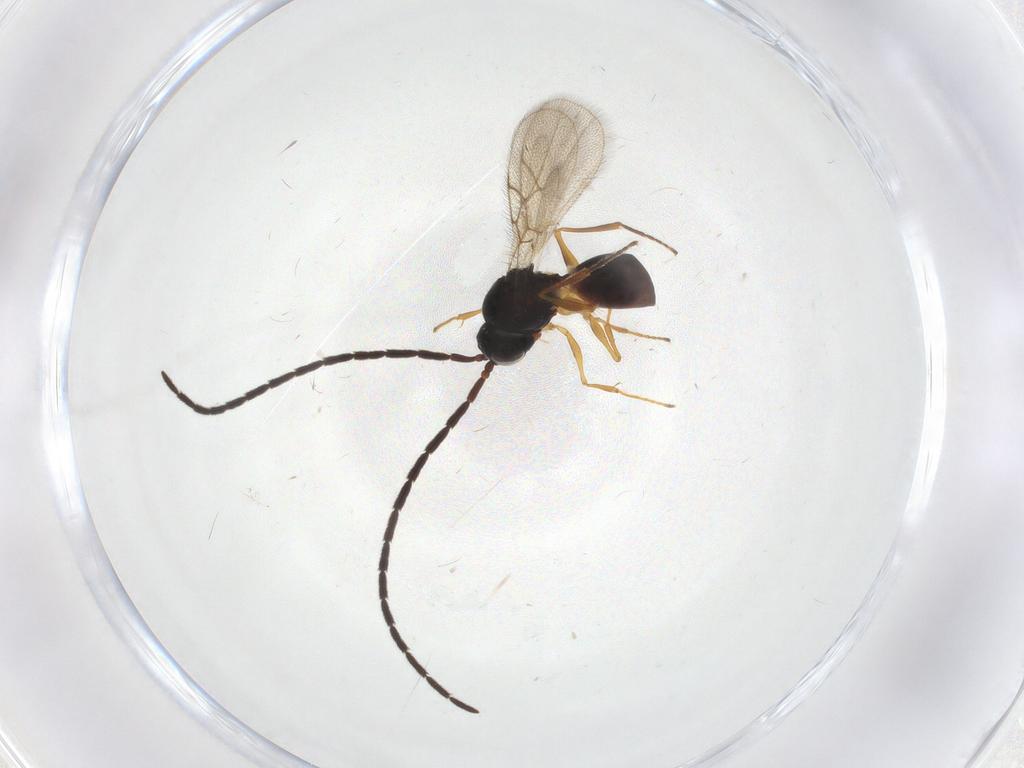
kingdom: Animalia
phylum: Arthropoda
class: Insecta
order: Hymenoptera
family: Figitidae
